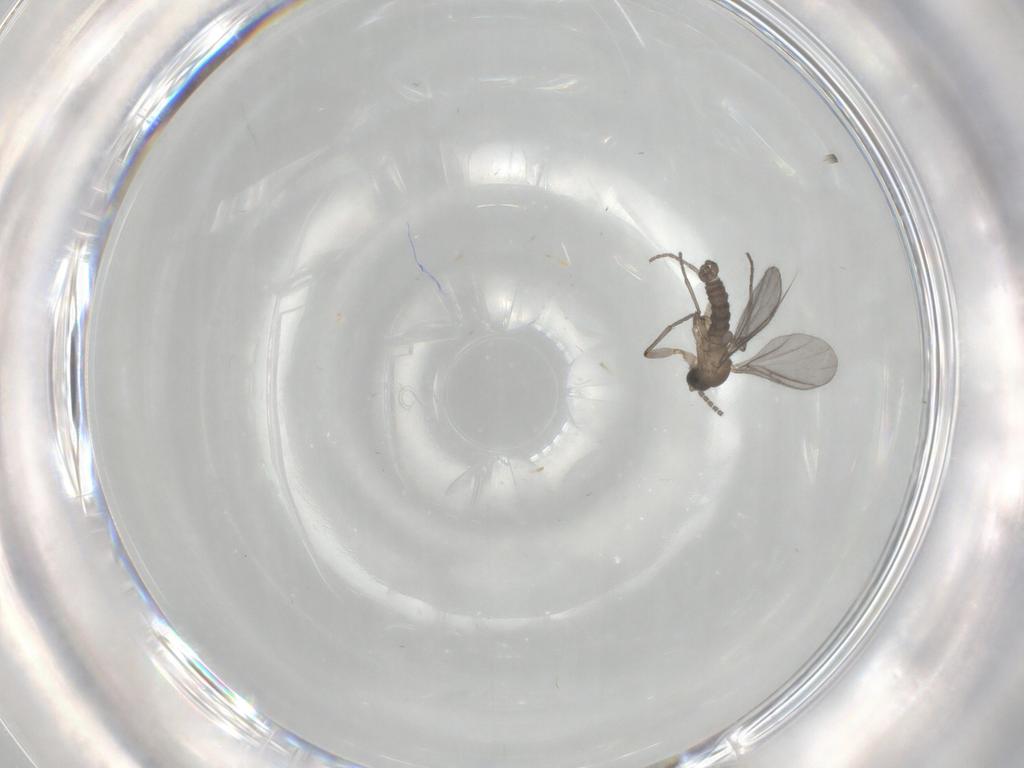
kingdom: Animalia
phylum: Arthropoda
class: Insecta
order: Diptera
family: Sciaridae
